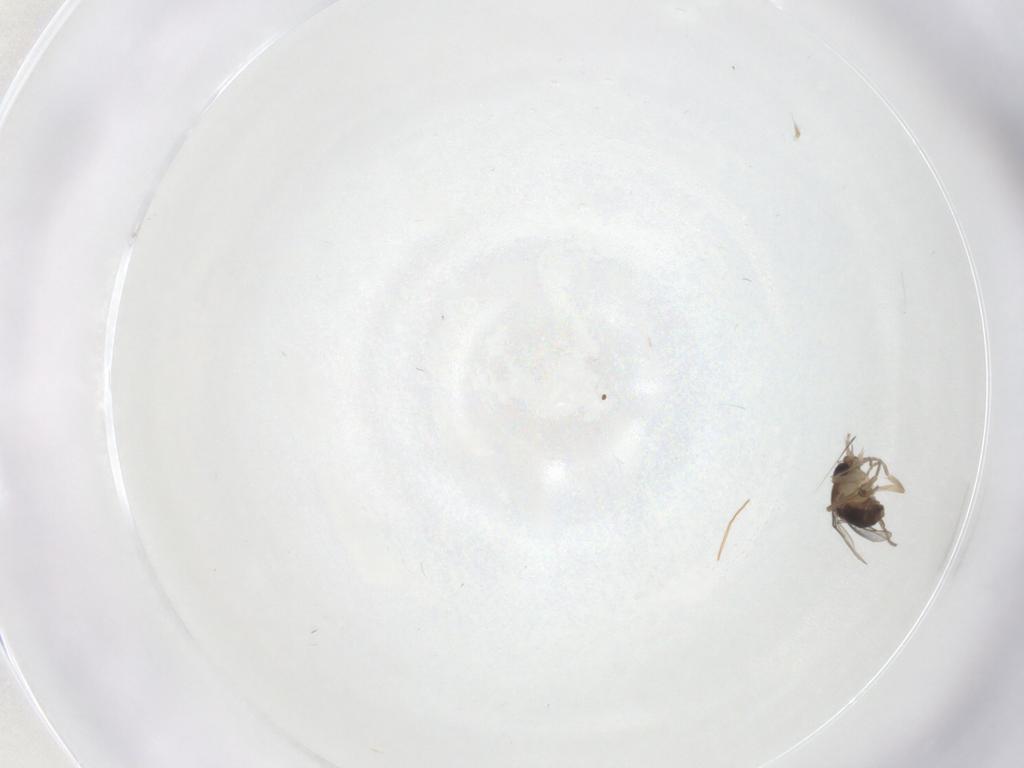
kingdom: Animalia
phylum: Arthropoda
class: Insecta
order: Diptera
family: Phoridae
